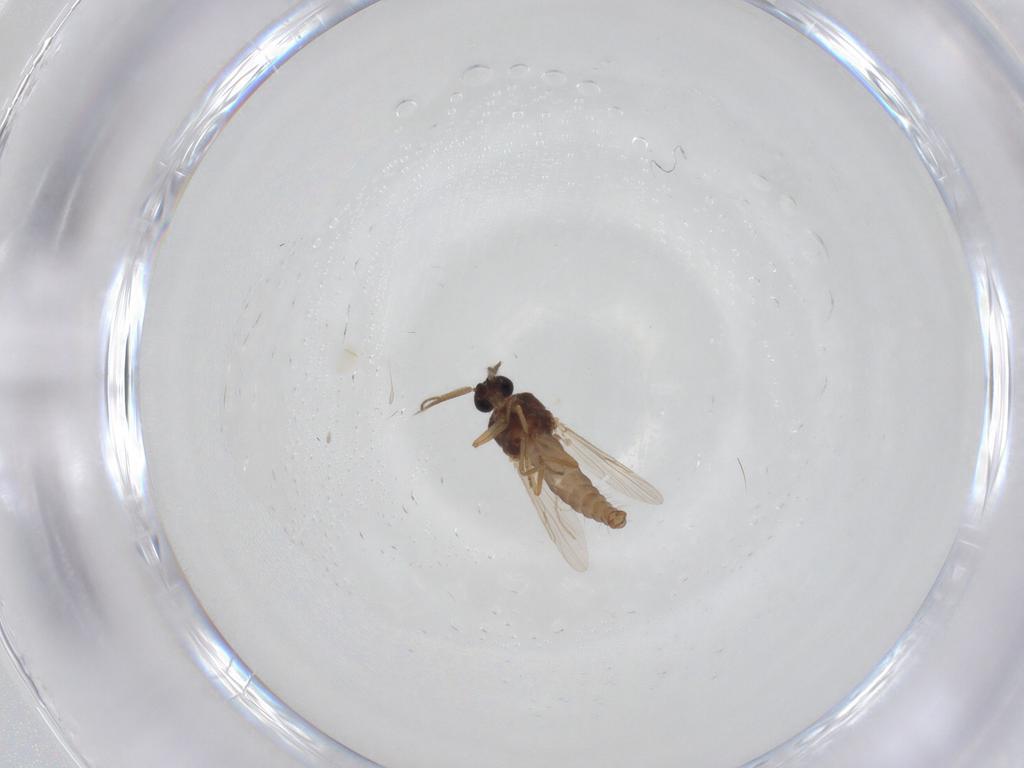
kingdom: Animalia
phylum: Arthropoda
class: Insecta
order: Diptera
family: Ceratopogonidae
